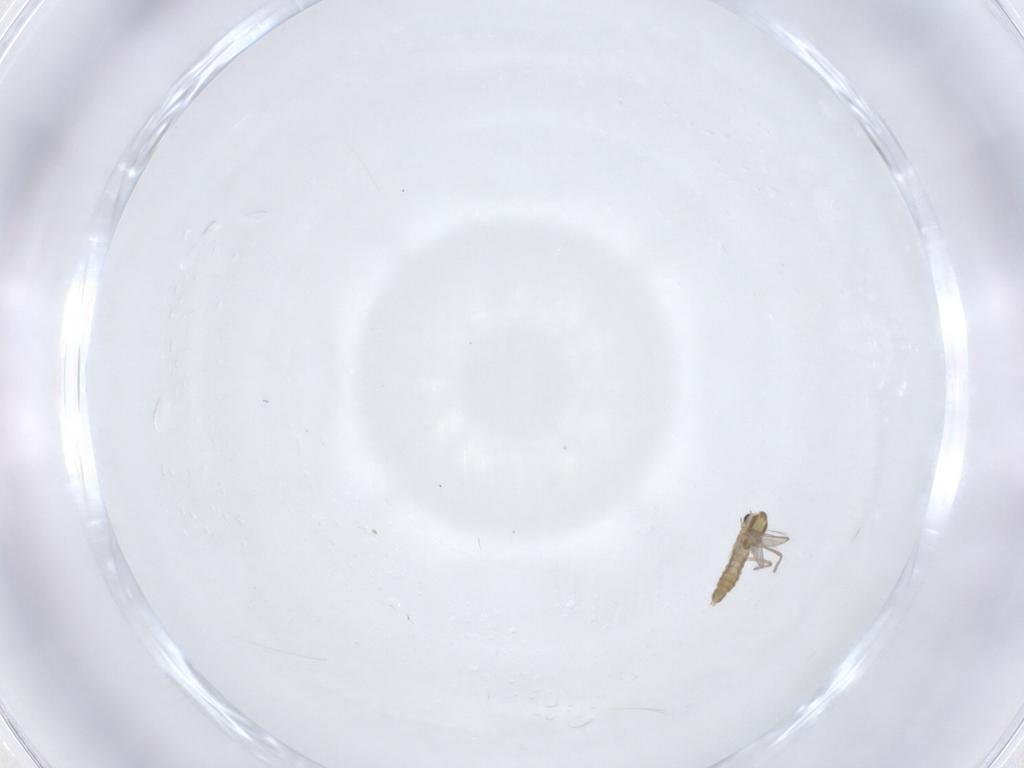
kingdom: Animalia
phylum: Arthropoda
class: Insecta
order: Diptera
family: Chironomidae
